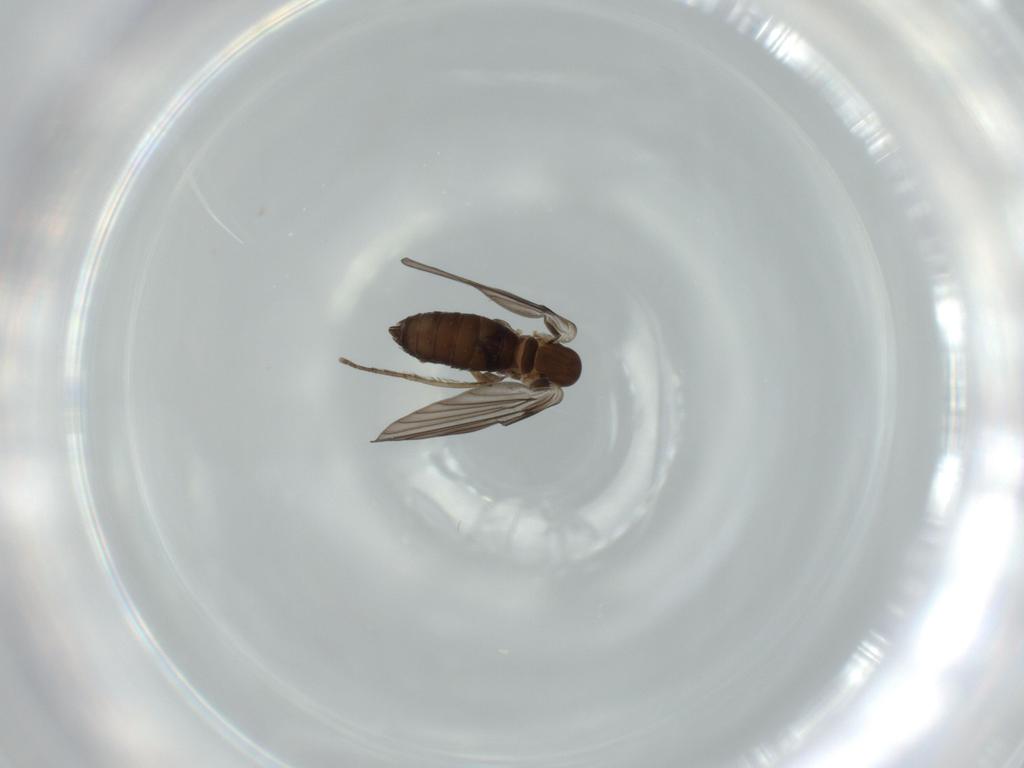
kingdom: Animalia
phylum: Arthropoda
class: Insecta
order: Diptera
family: Psychodidae
